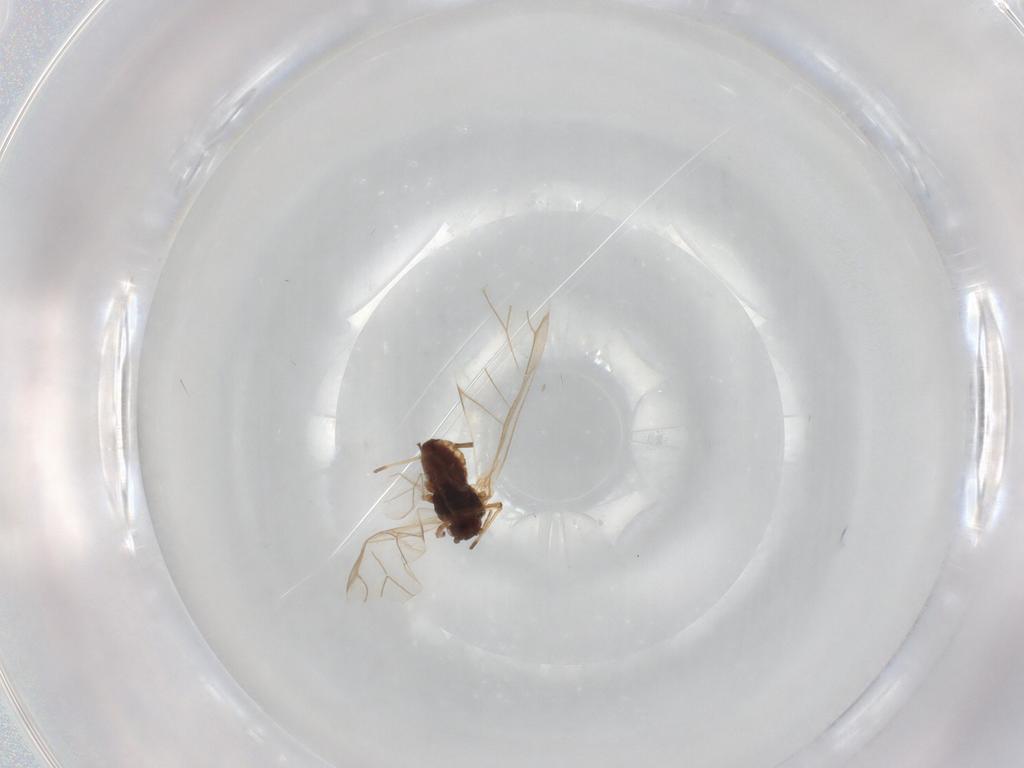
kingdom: Animalia
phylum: Arthropoda
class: Insecta
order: Hemiptera
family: Aphididae
